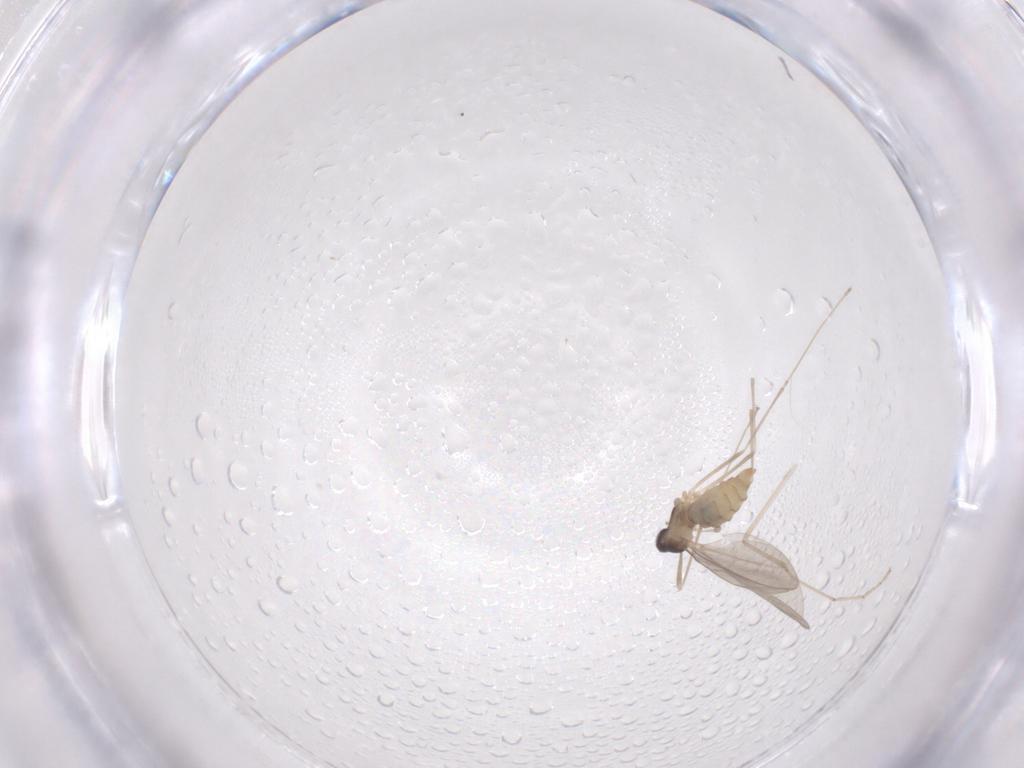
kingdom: Animalia
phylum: Arthropoda
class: Insecta
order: Diptera
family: Cecidomyiidae
